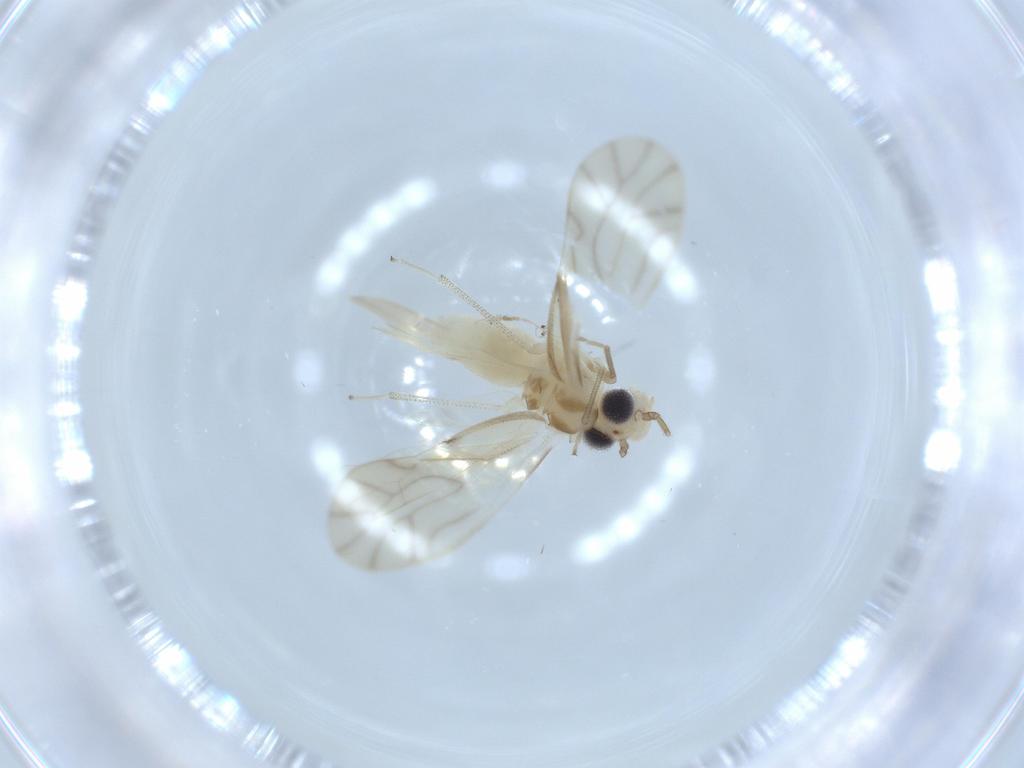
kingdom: Animalia
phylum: Arthropoda
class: Insecta
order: Psocodea
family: Caeciliusidae
